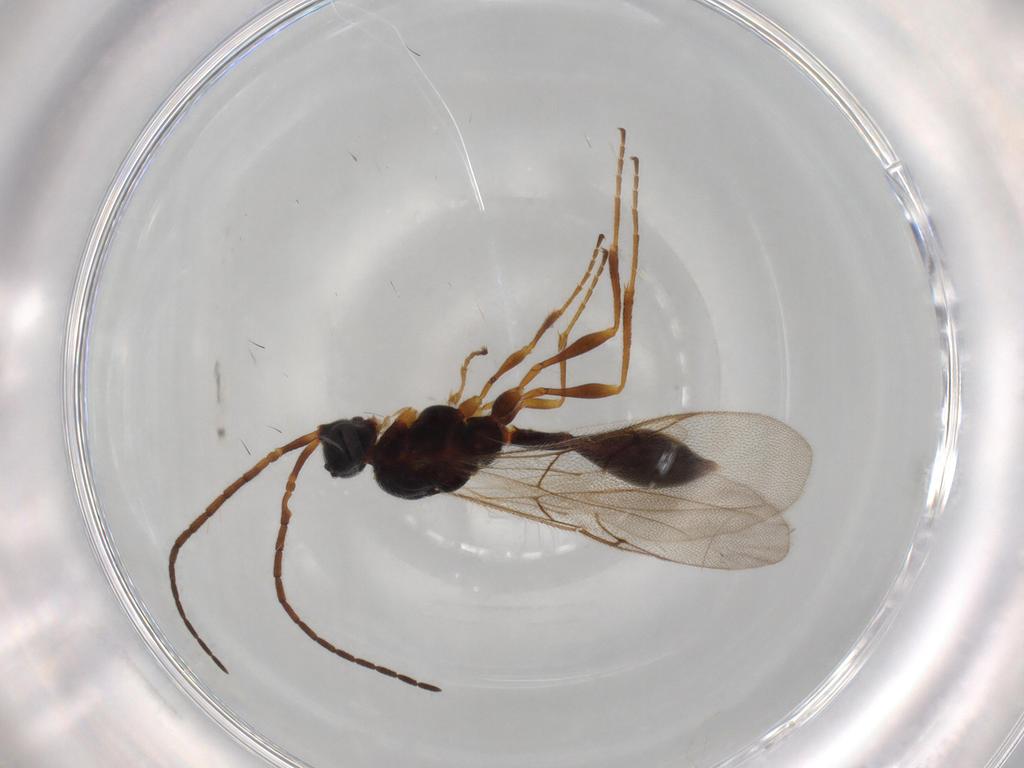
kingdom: Animalia
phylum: Arthropoda
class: Insecta
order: Hymenoptera
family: Diapriidae
